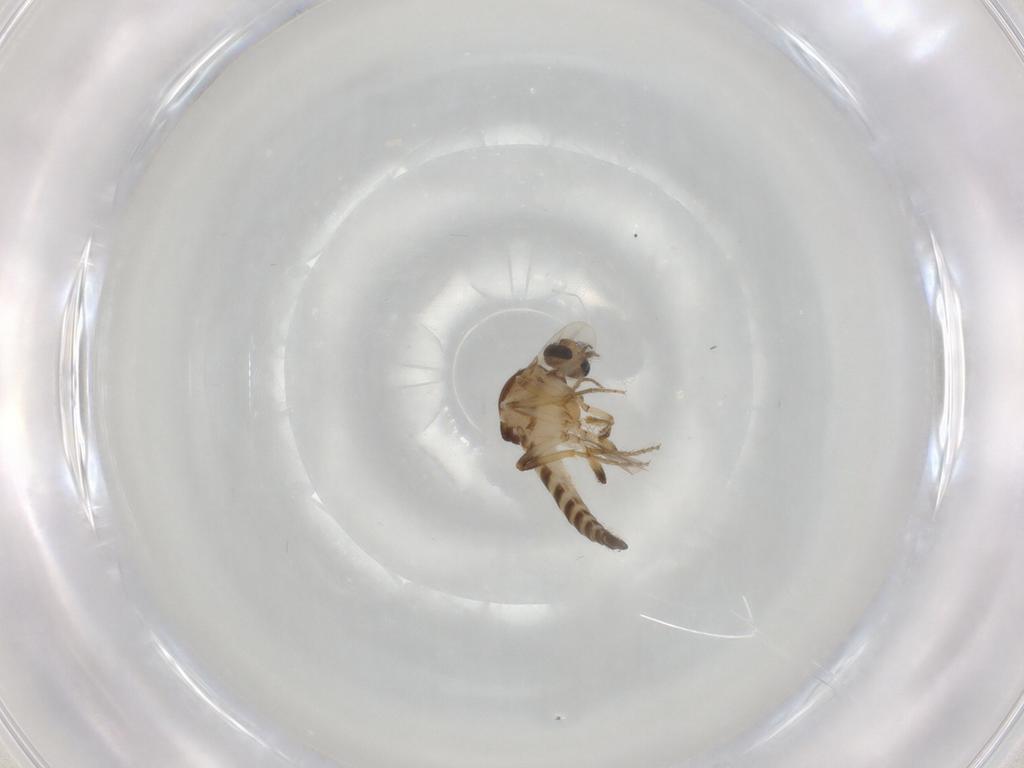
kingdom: Animalia
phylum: Arthropoda
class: Insecta
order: Diptera
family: Ceratopogonidae
